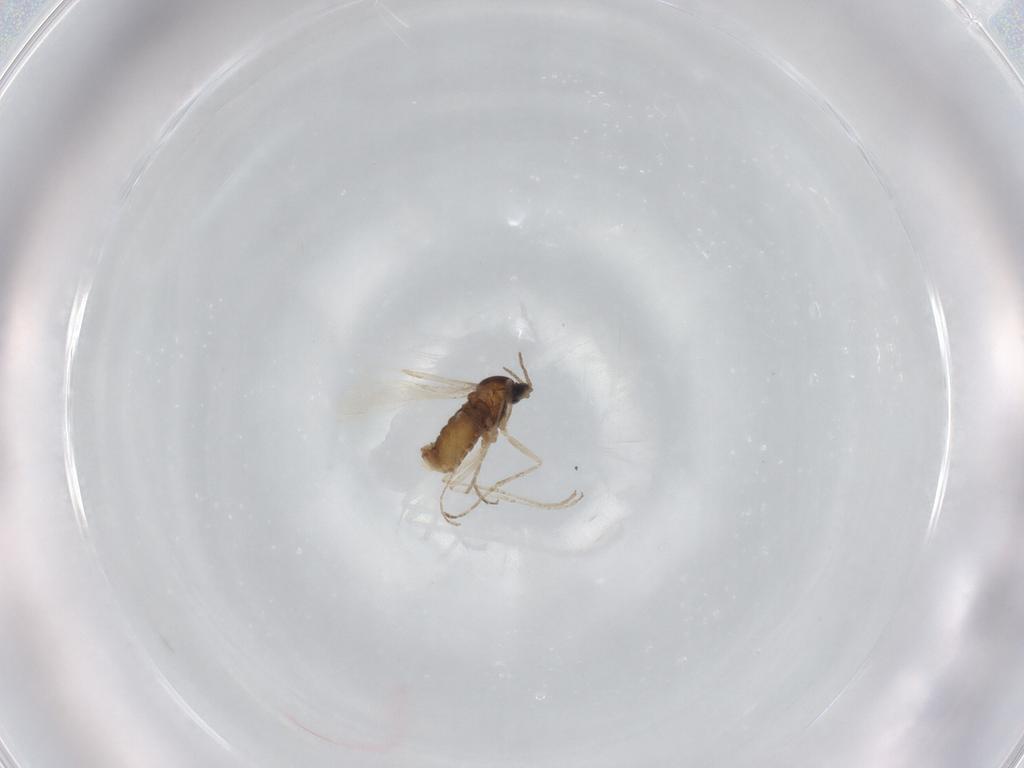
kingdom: Animalia
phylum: Arthropoda
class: Insecta
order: Diptera
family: Cecidomyiidae
